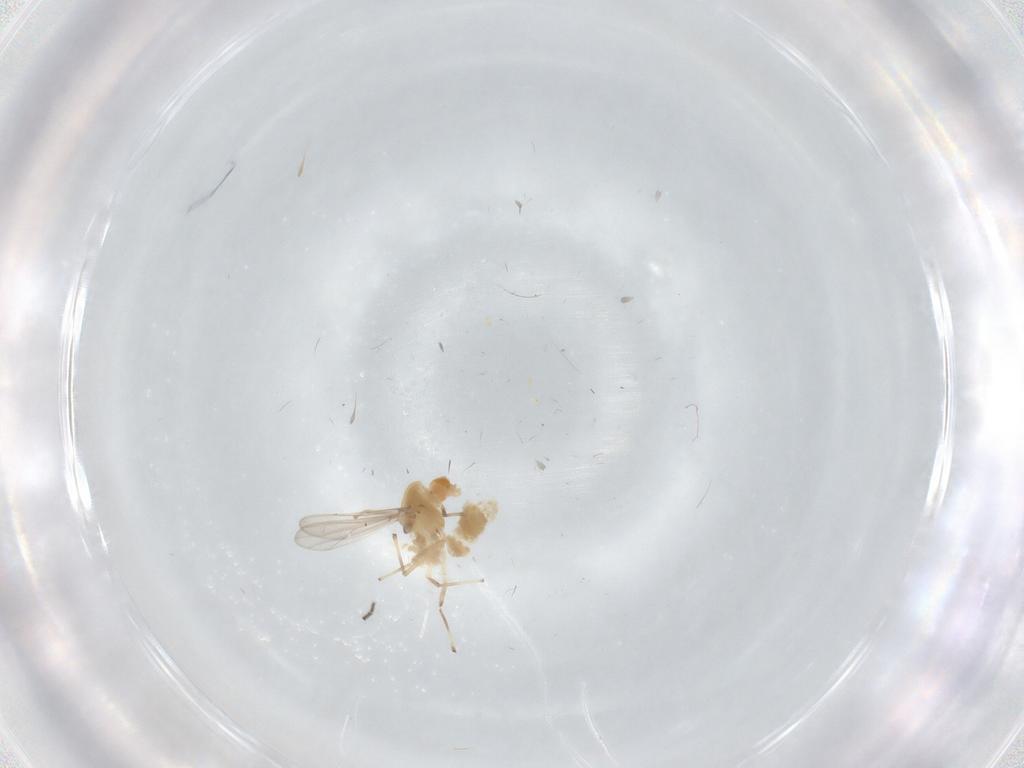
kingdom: Animalia
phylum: Arthropoda
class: Insecta
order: Diptera
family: Chironomidae
